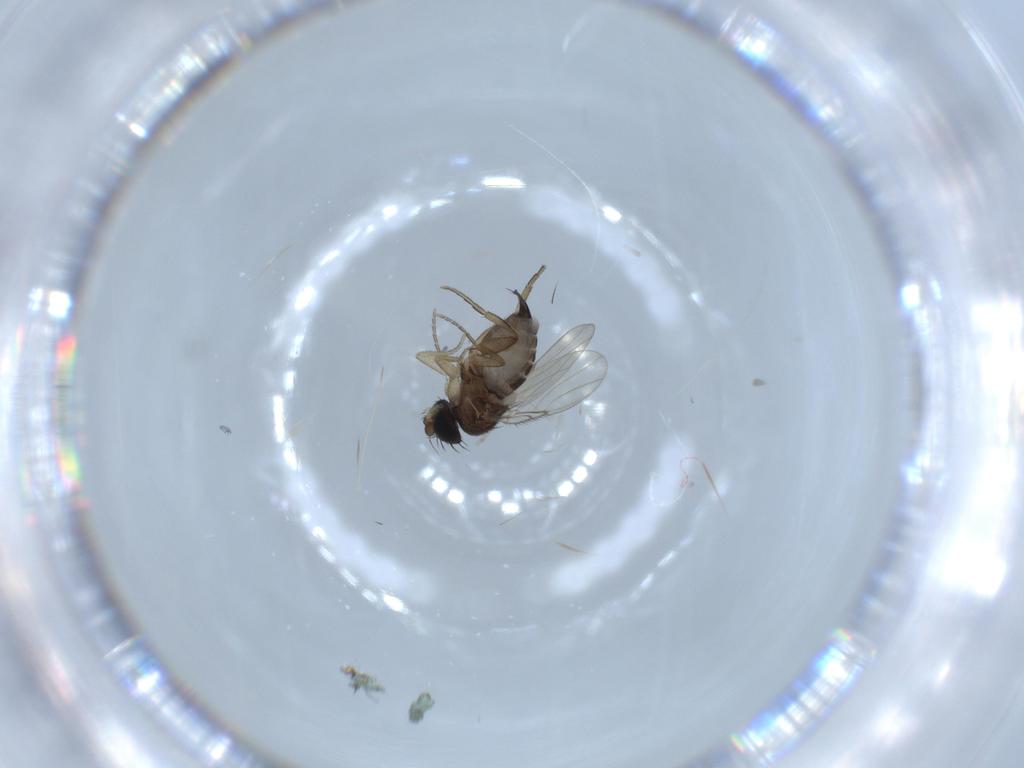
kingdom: Animalia
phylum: Arthropoda
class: Insecta
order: Diptera
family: Phoridae
